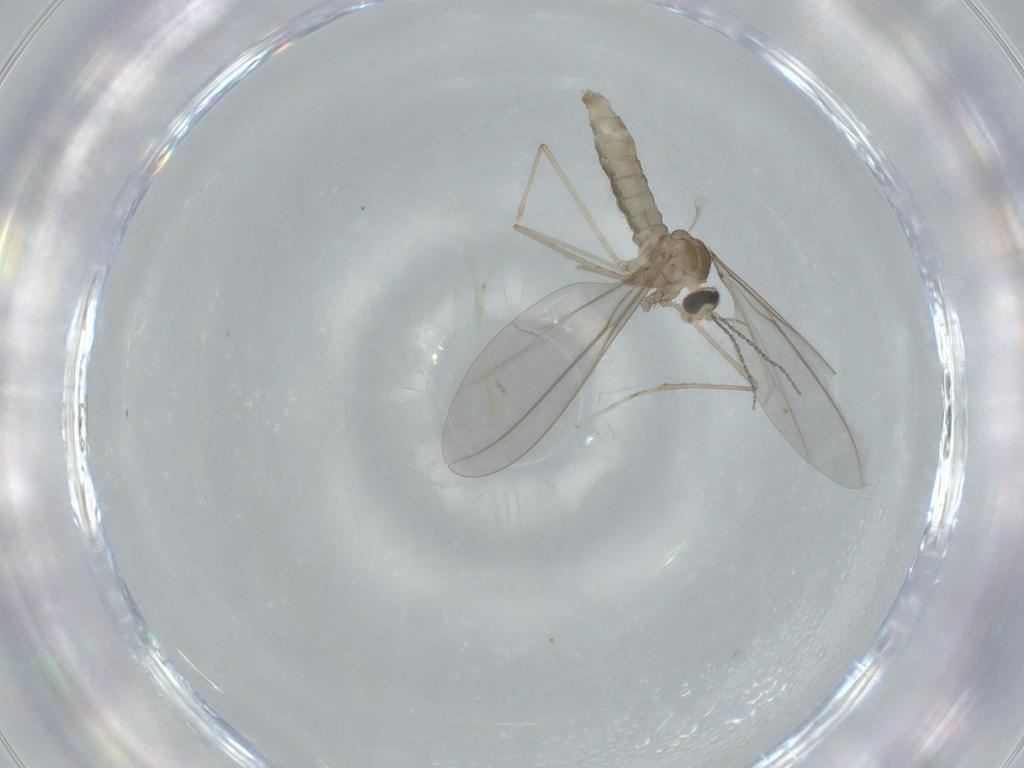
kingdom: Animalia
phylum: Arthropoda
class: Insecta
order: Diptera
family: Cecidomyiidae
